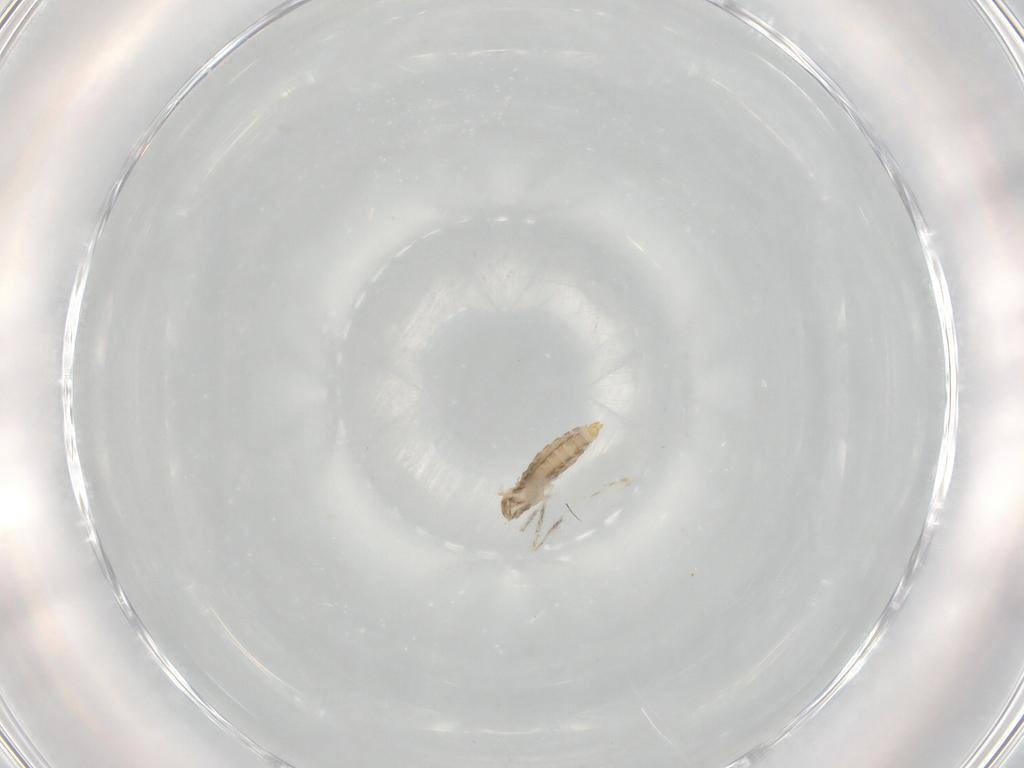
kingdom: Animalia
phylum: Arthropoda
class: Insecta
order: Diptera
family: Cecidomyiidae
